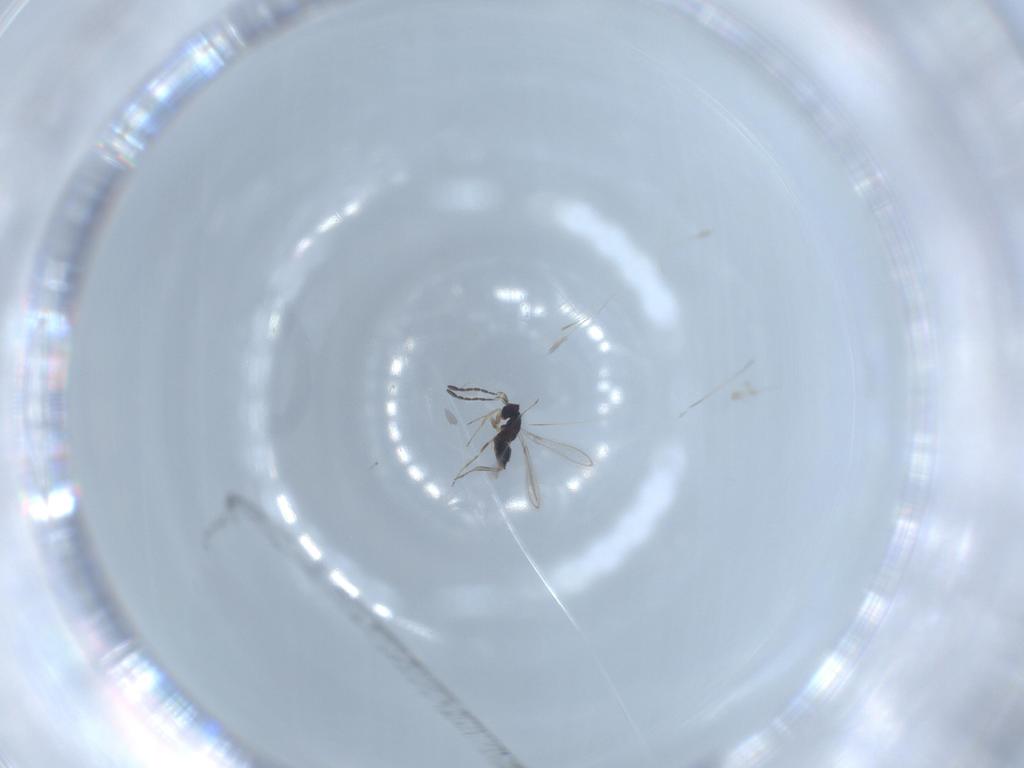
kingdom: Animalia
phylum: Arthropoda
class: Insecta
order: Hymenoptera
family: Mymaridae
